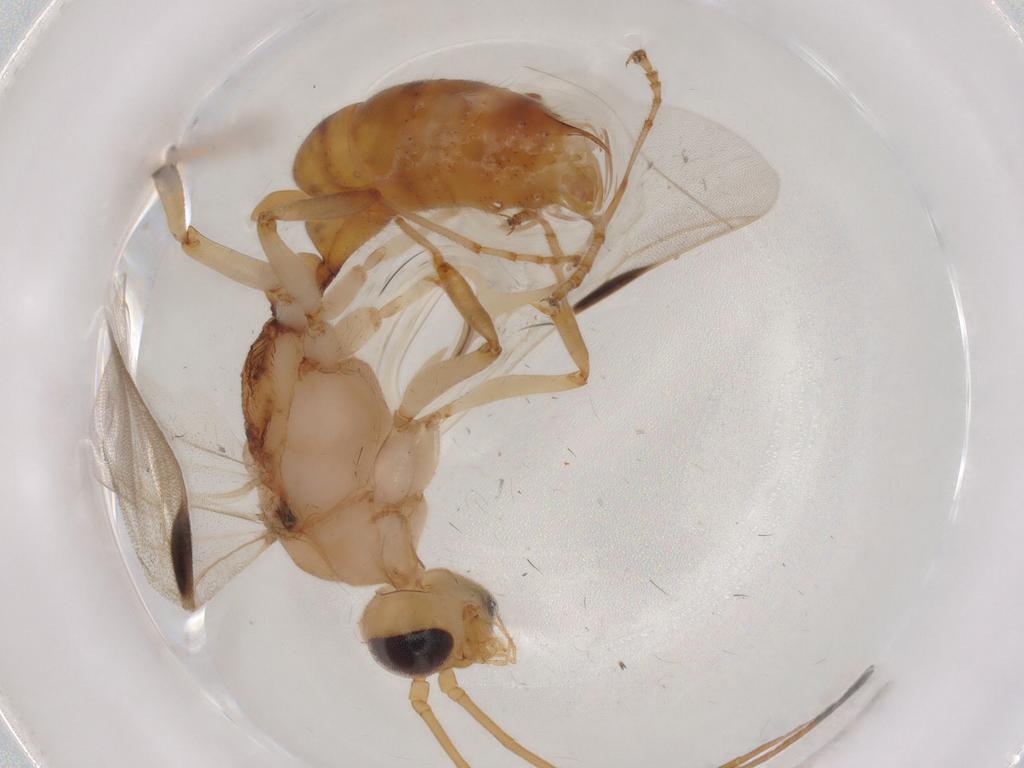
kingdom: Animalia
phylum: Arthropoda
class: Insecta
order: Hymenoptera
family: Formicidae
